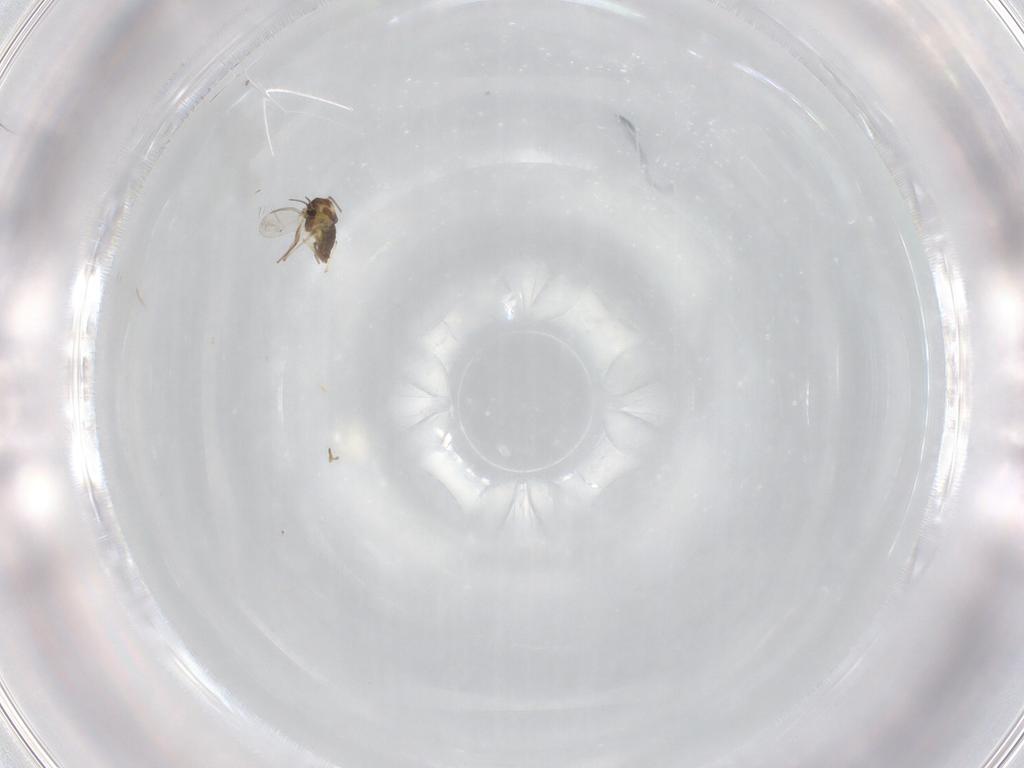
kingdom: Animalia
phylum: Arthropoda
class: Insecta
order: Diptera
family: Chironomidae
